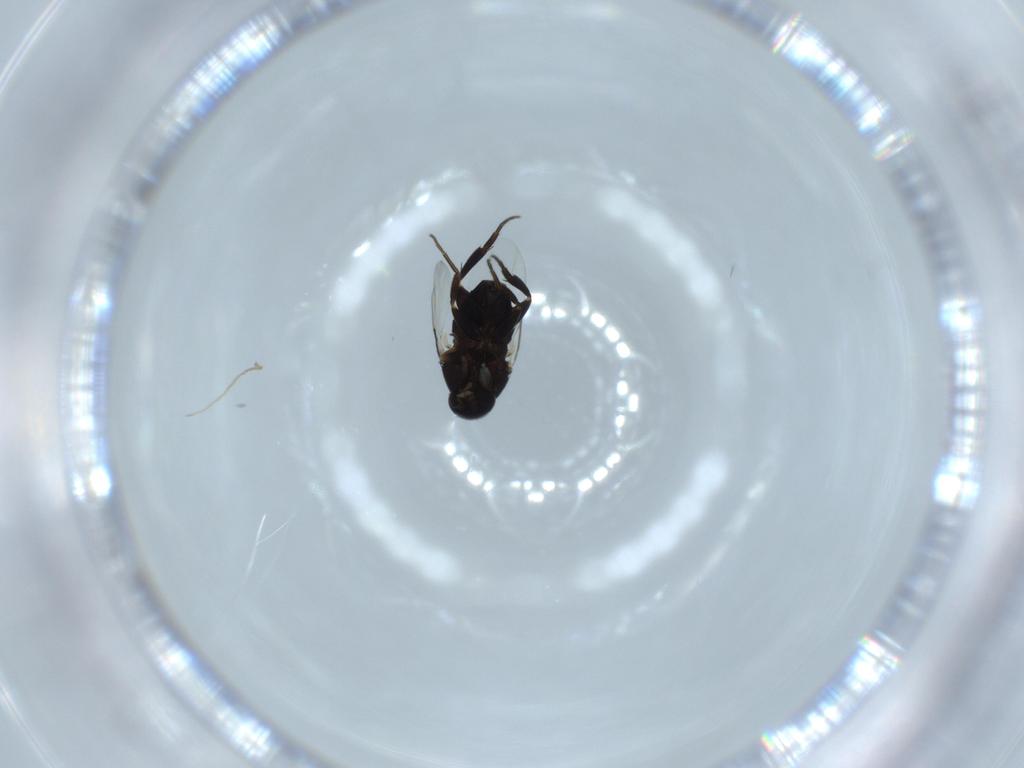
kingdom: Animalia
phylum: Arthropoda
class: Insecta
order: Diptera
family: Phoridae
